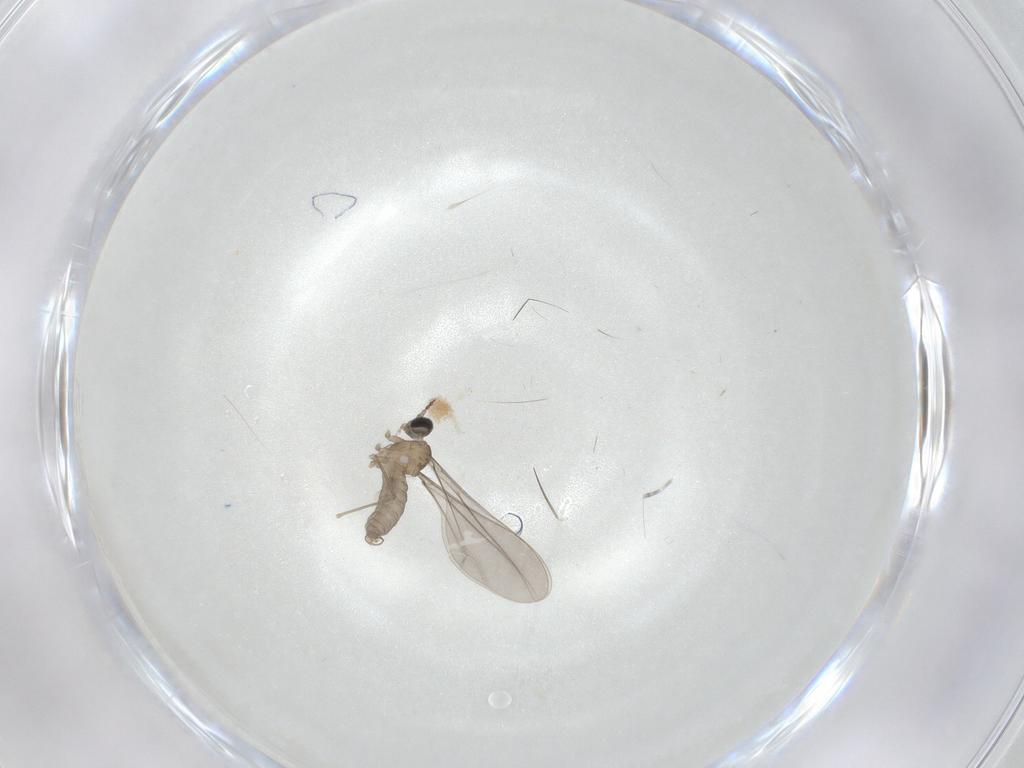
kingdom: Animalia
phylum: Arthropoda
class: Insecta
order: Diptera
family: Cecidomyiidae
